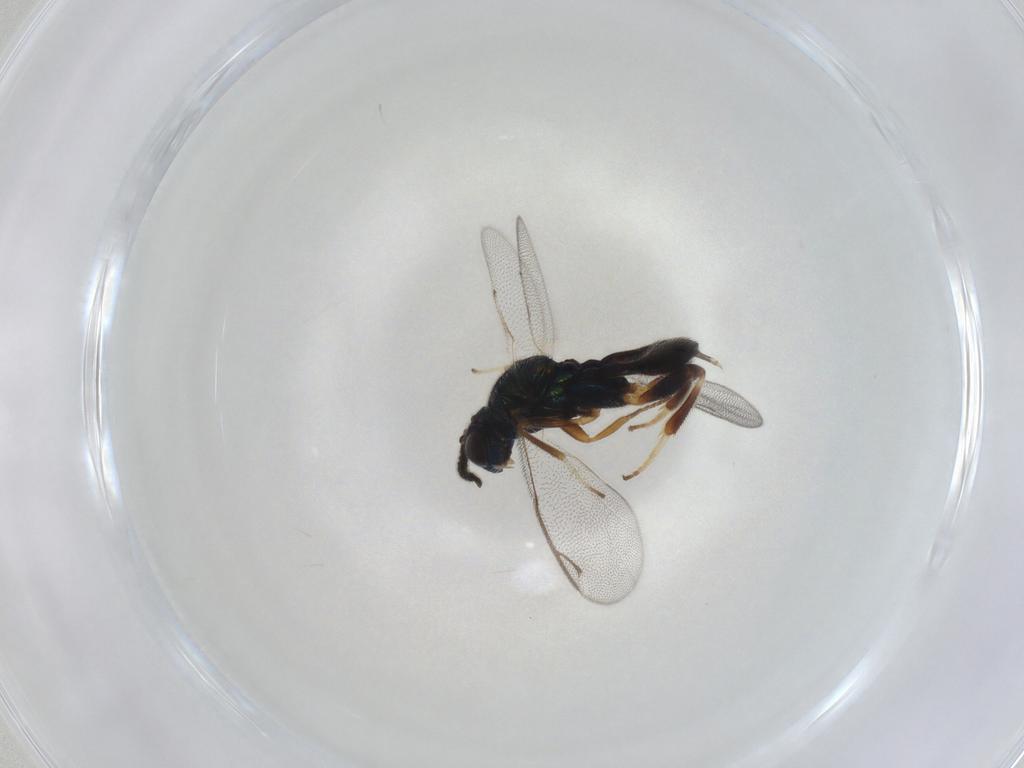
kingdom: Animalia
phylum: Arthropoda
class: Insecta
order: Hymenoptera
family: Cleonyminae
